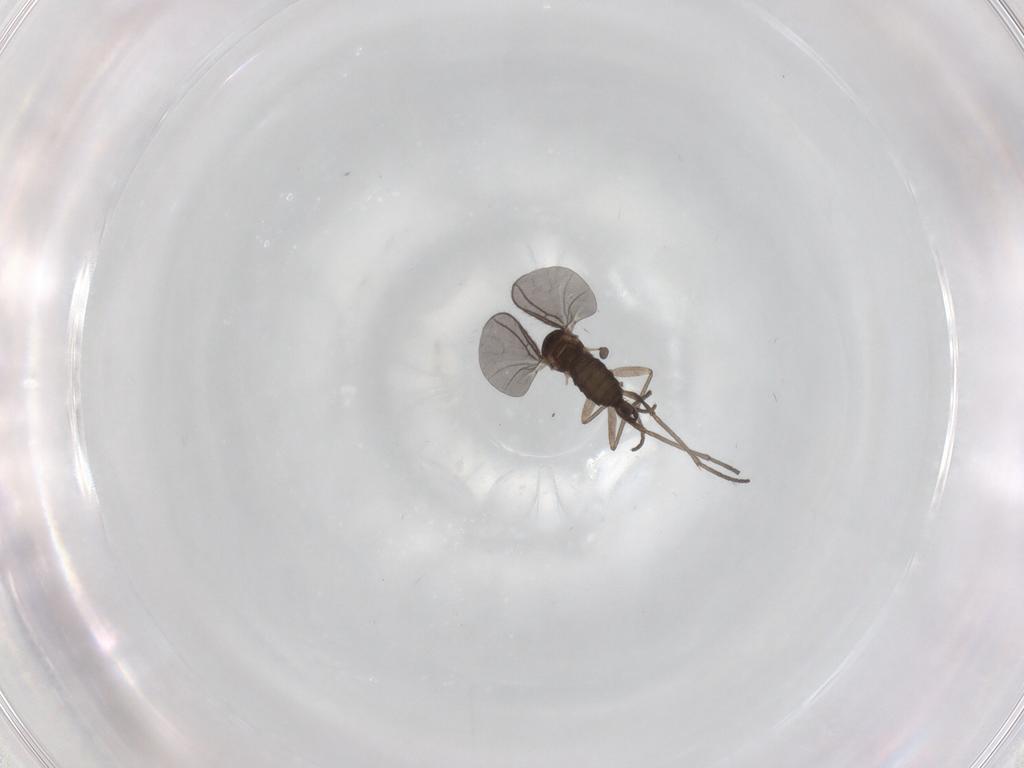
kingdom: Animalia
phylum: Arthropoda
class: Insecta
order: Diptera
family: Sciaridae
